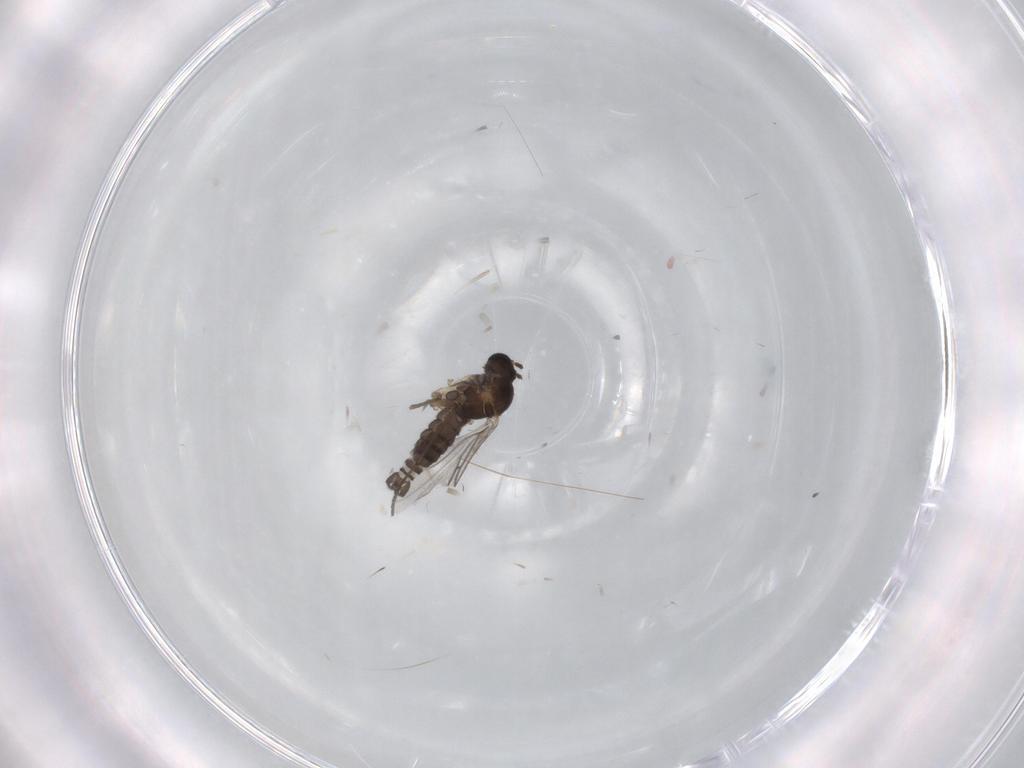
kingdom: Animalia
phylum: Arthropoda
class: Insecta
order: Diptera
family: Sciaridae
